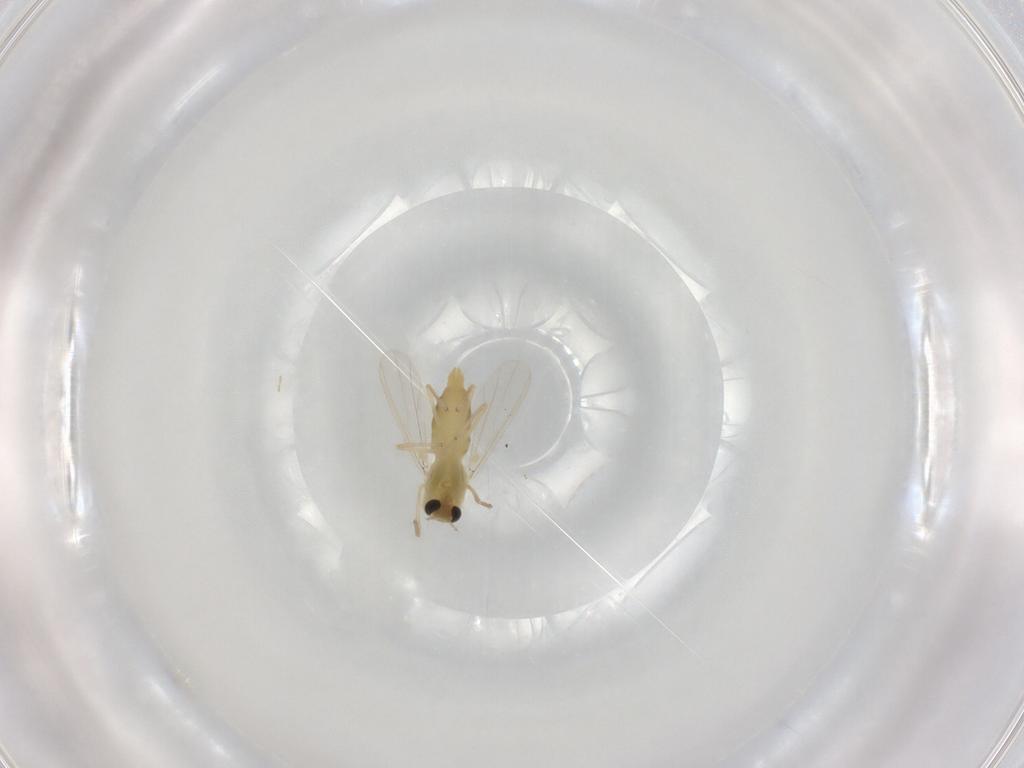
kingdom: Animalia
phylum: Arthropoda
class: Insecta
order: Diptera
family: Chironomidae
